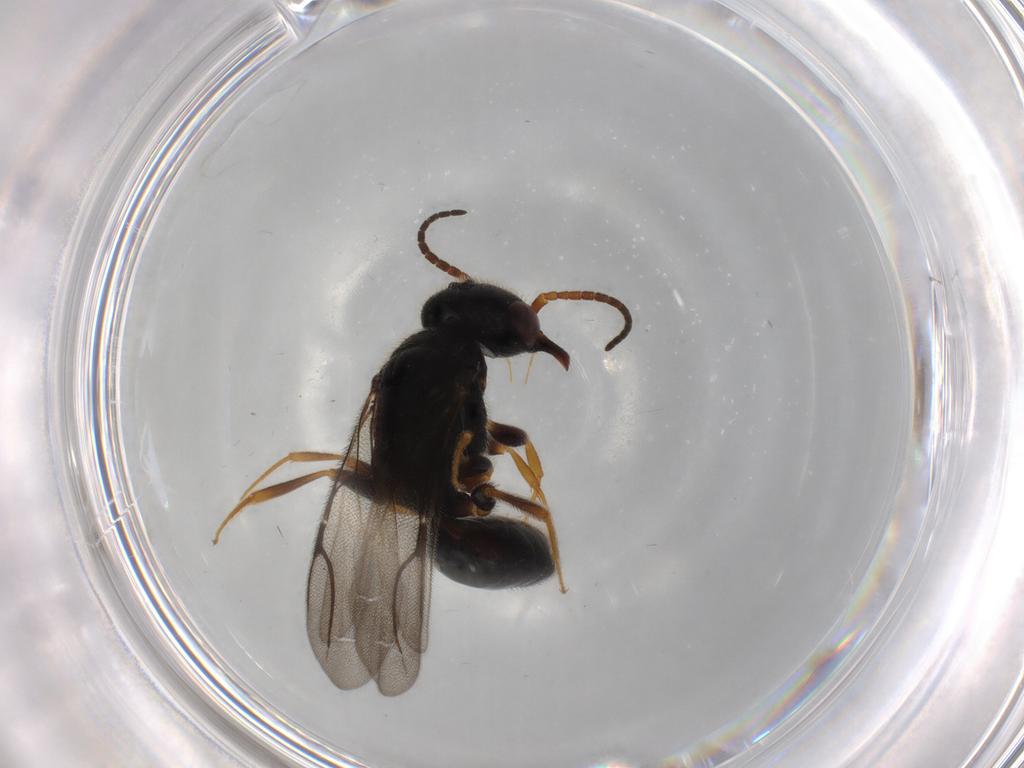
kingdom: Animalia
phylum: Arthropoda
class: Insecta
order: Hymenoptera
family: Bethylidae
